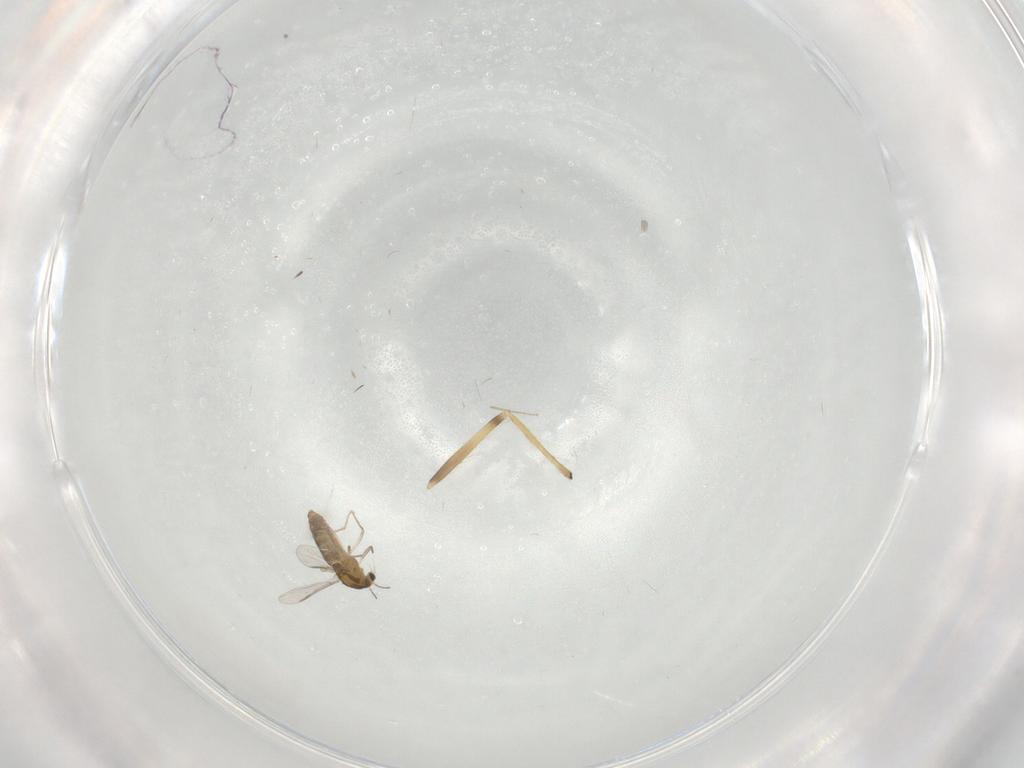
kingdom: Animalia
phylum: Arthropoda
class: Insecta
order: Diptera
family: Chironomidae
